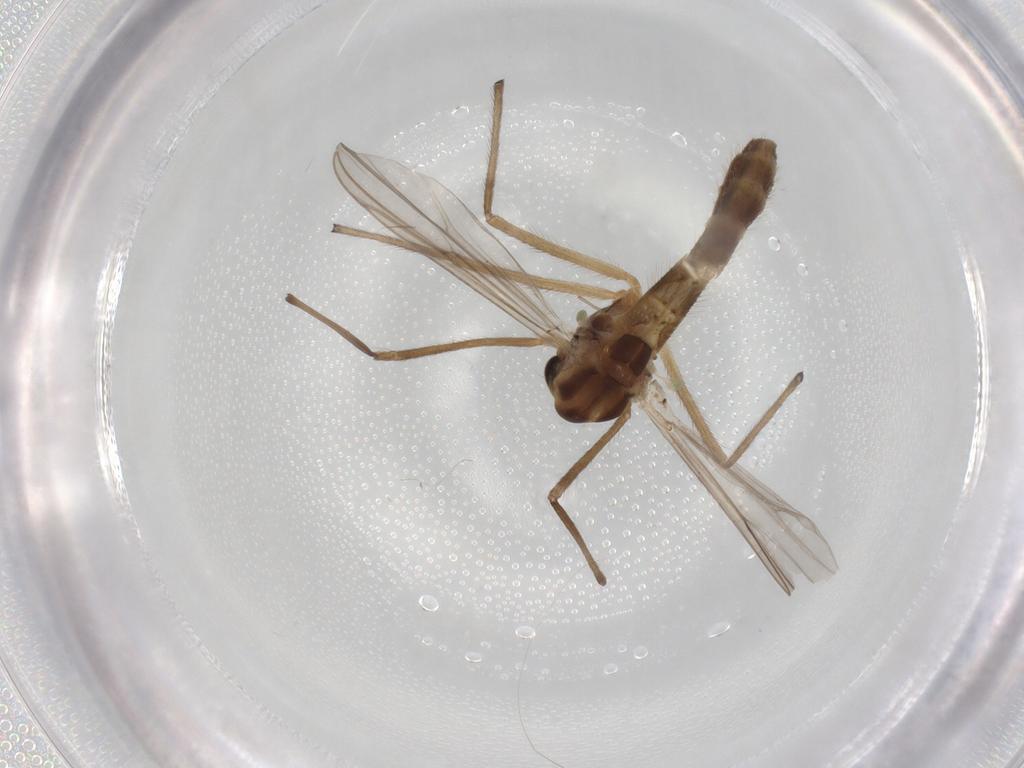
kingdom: Animalia
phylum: Arthropoda
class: Insecta
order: Diptera
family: Chironomidae
